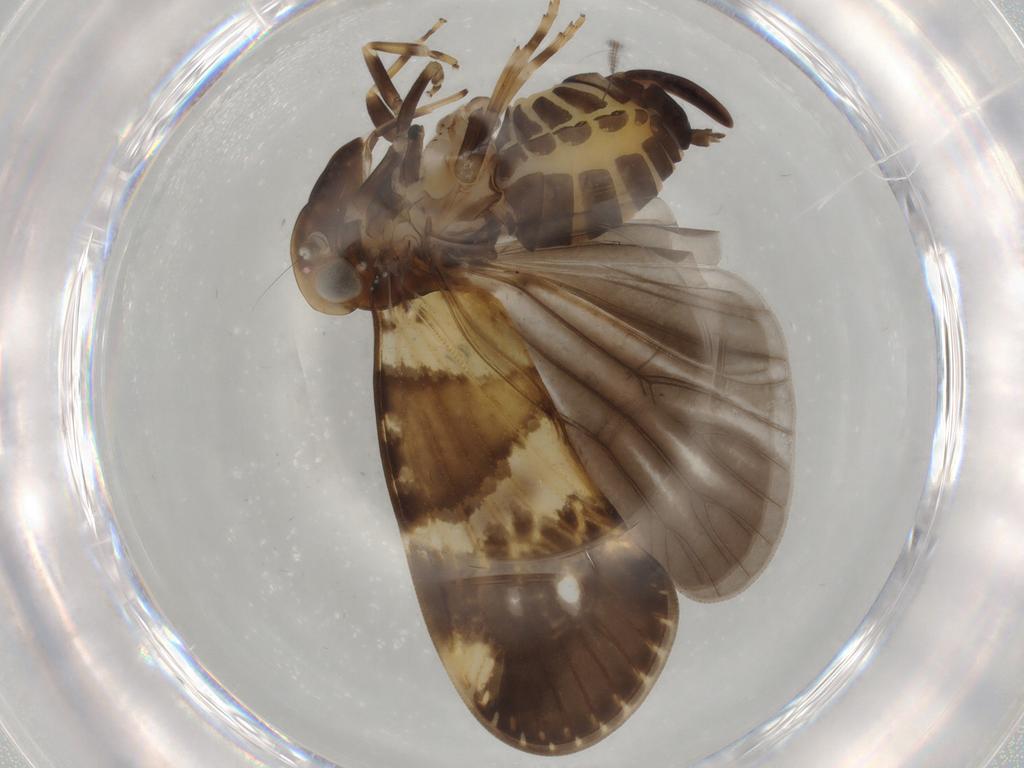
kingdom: Animalia
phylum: Arthropoda
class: Insecta
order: Hemiptera
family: Cixiidae
